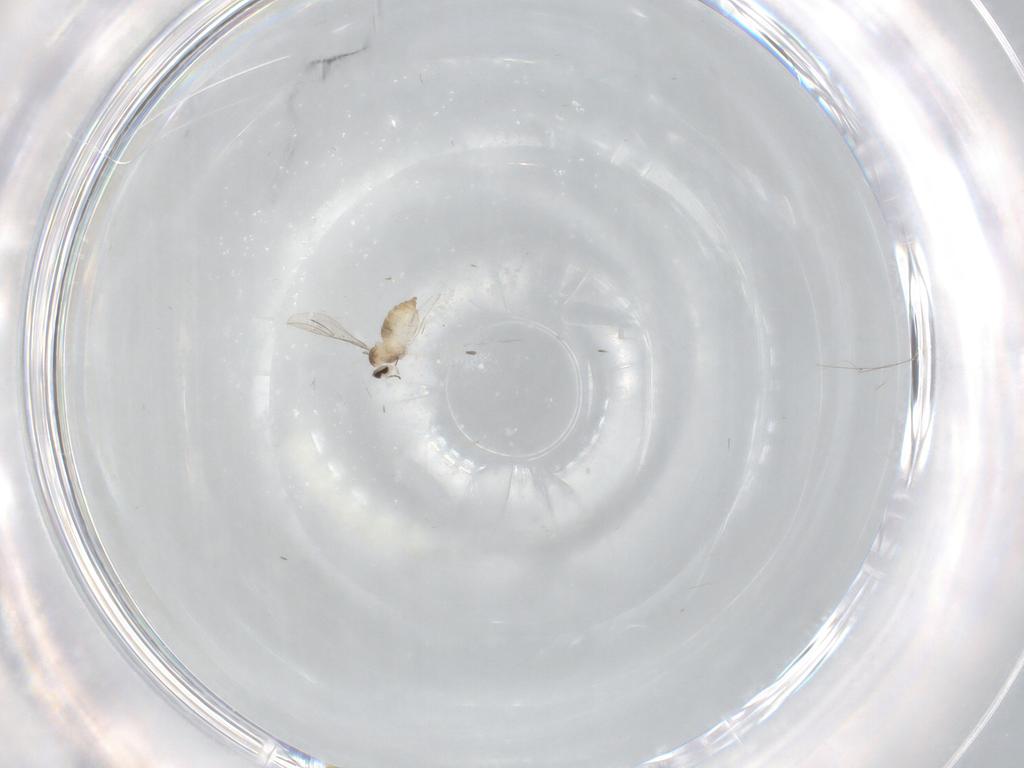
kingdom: Animalia
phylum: Arthropoda
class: Insecta
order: Diptera
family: Cecidomyiidae
